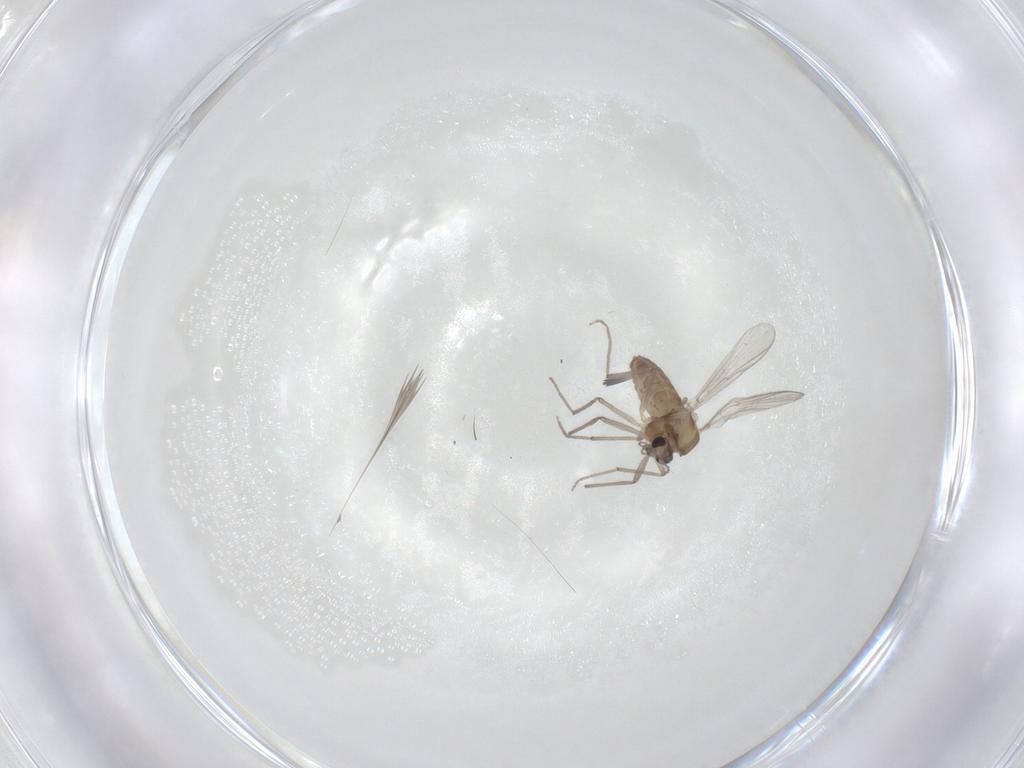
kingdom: Animalia
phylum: Arthropoda
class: Insecta
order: Diptera
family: Chironomidae
